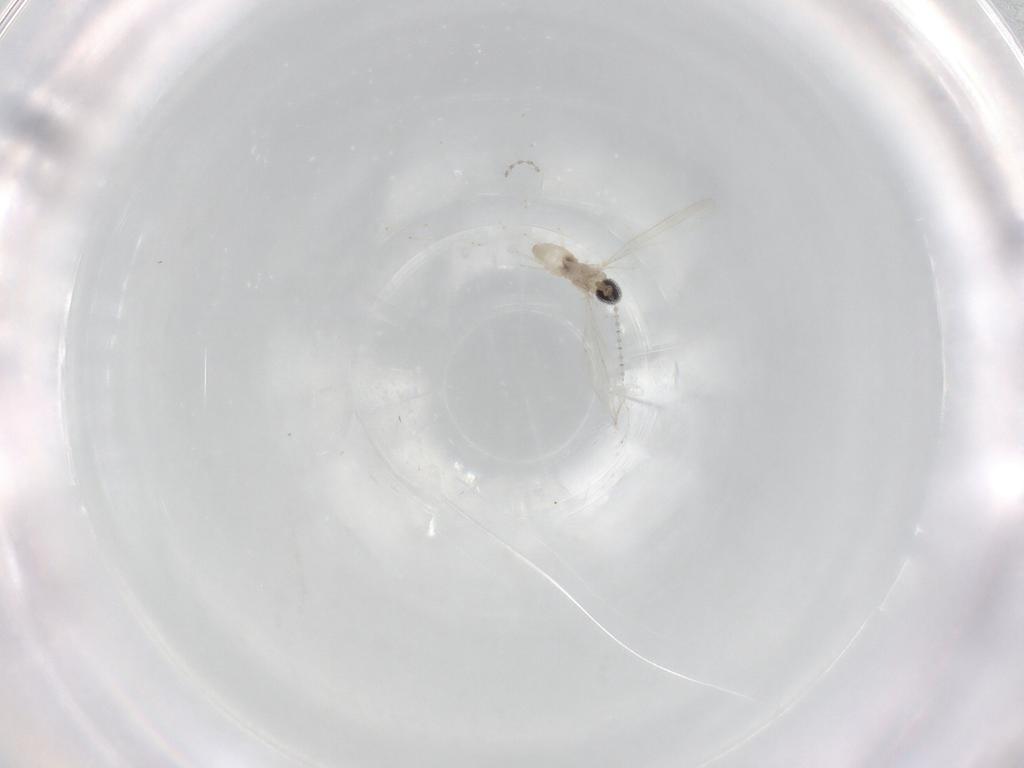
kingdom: Animalia
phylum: Arthropoda
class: Insecta
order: Diptera
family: Cecidomyiidae
